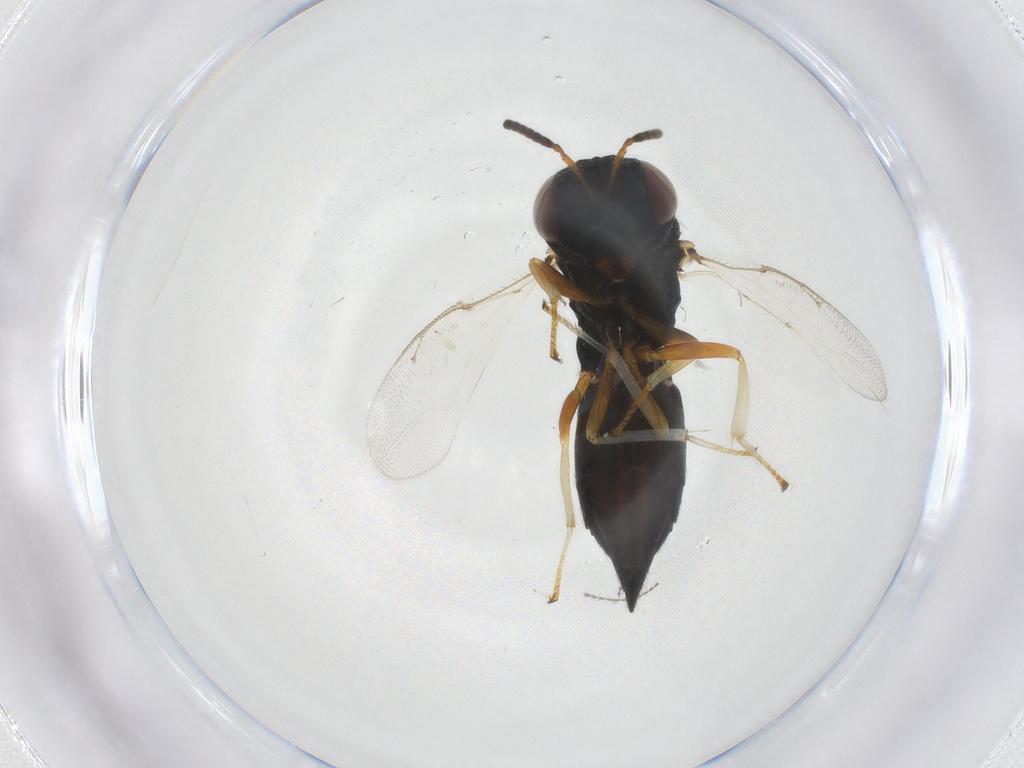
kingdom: Animalia
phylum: Arthropoda
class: Insecta
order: Hymenoptera
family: Pteromalidae
